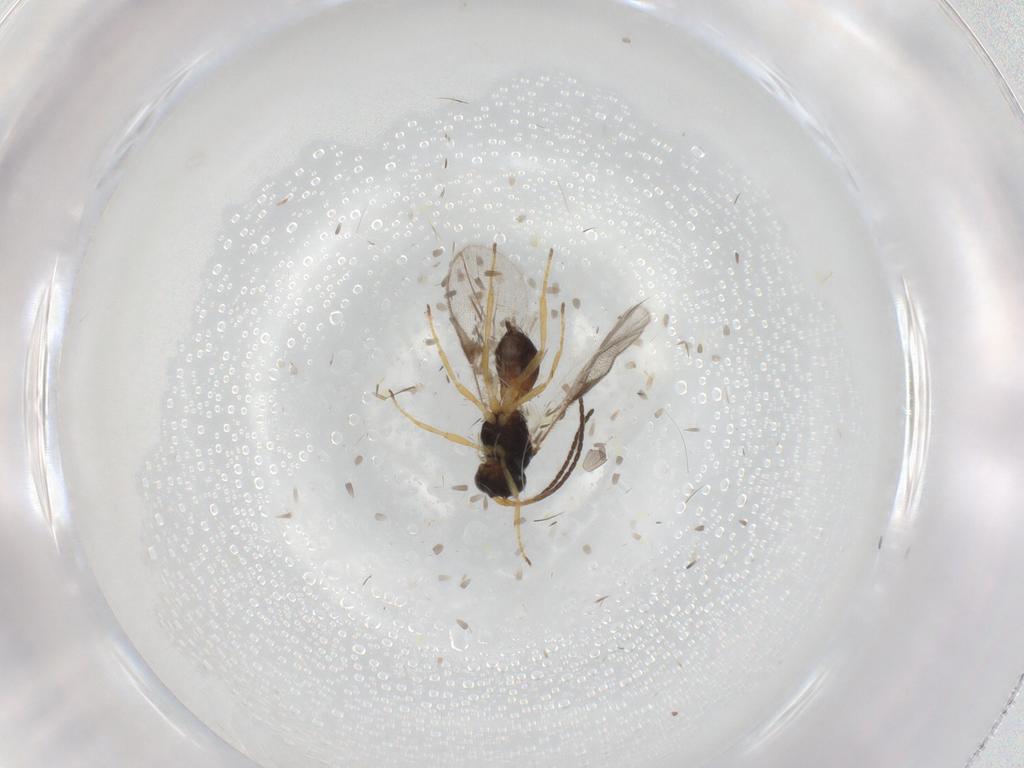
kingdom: Animalia
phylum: Arthropoda
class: Insecta
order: Hymenoptera
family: Braconidae
